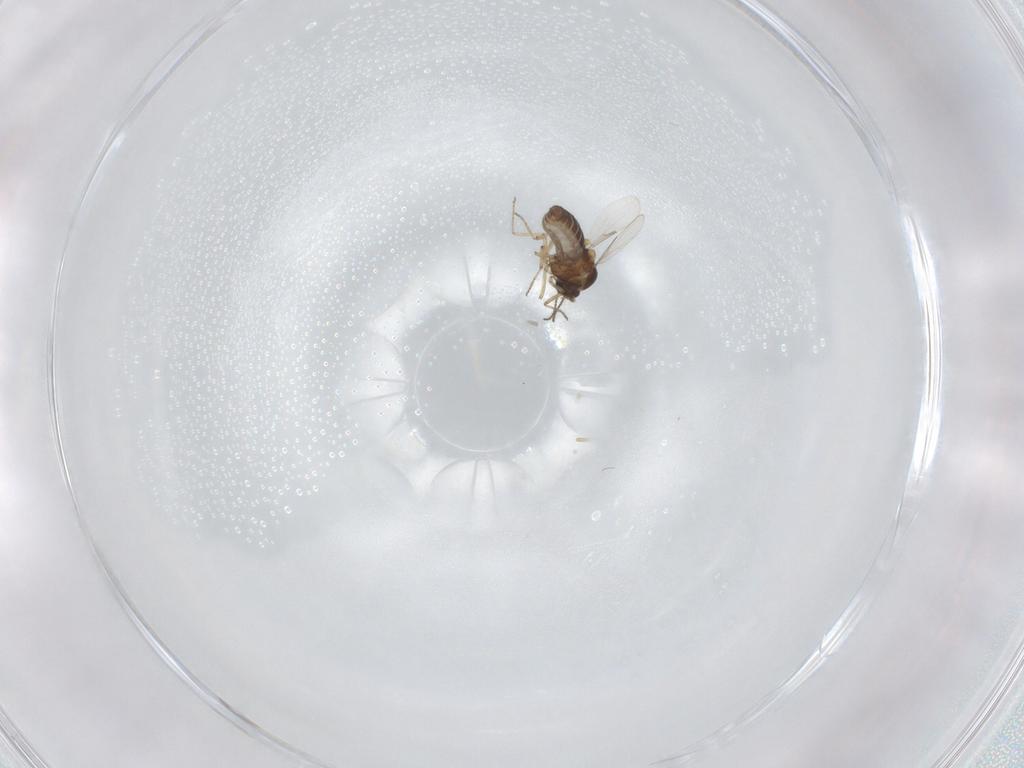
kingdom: Animalia
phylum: Arthropoda
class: Insecta
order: Diptera
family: Ceratopogonidae
